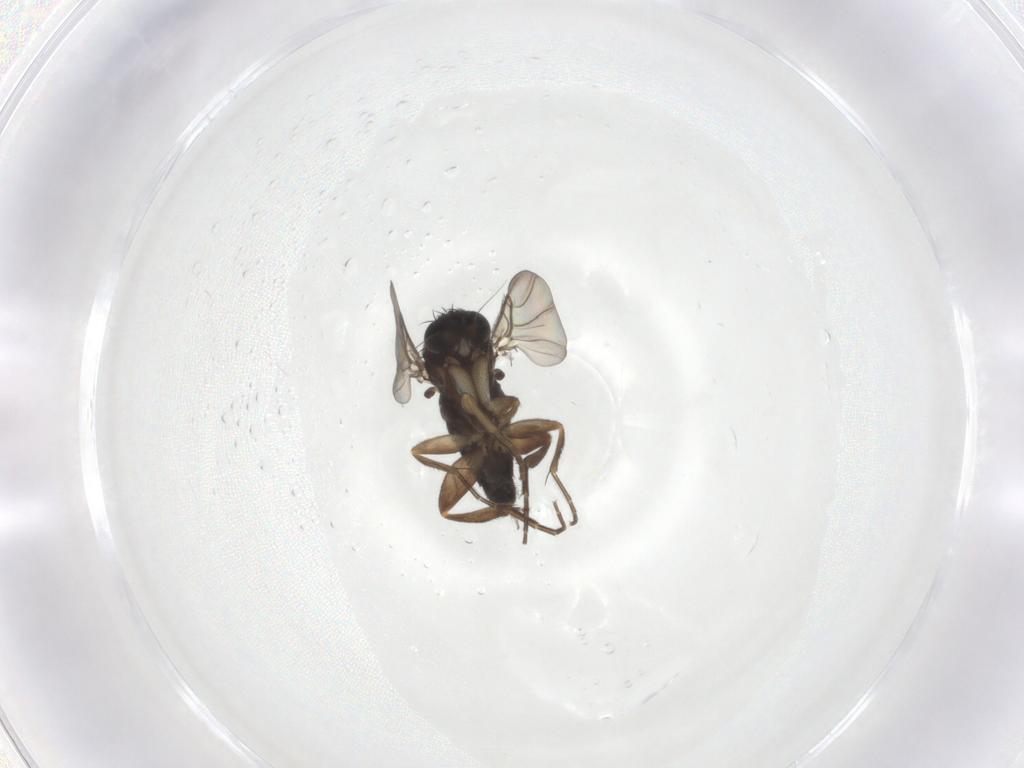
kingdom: Animalia
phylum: Arthropoda
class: Insecta
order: Diptera
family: Phoridae
